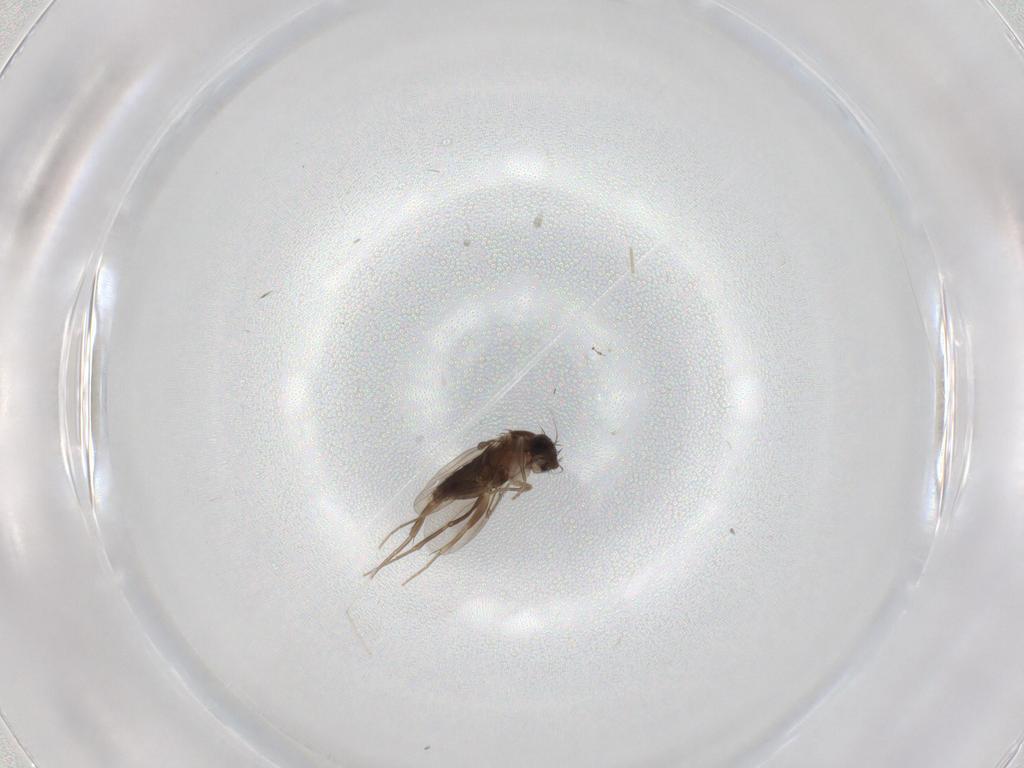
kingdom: Animalia
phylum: Arthropoda
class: Insecta
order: Diptera
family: Phoridae
